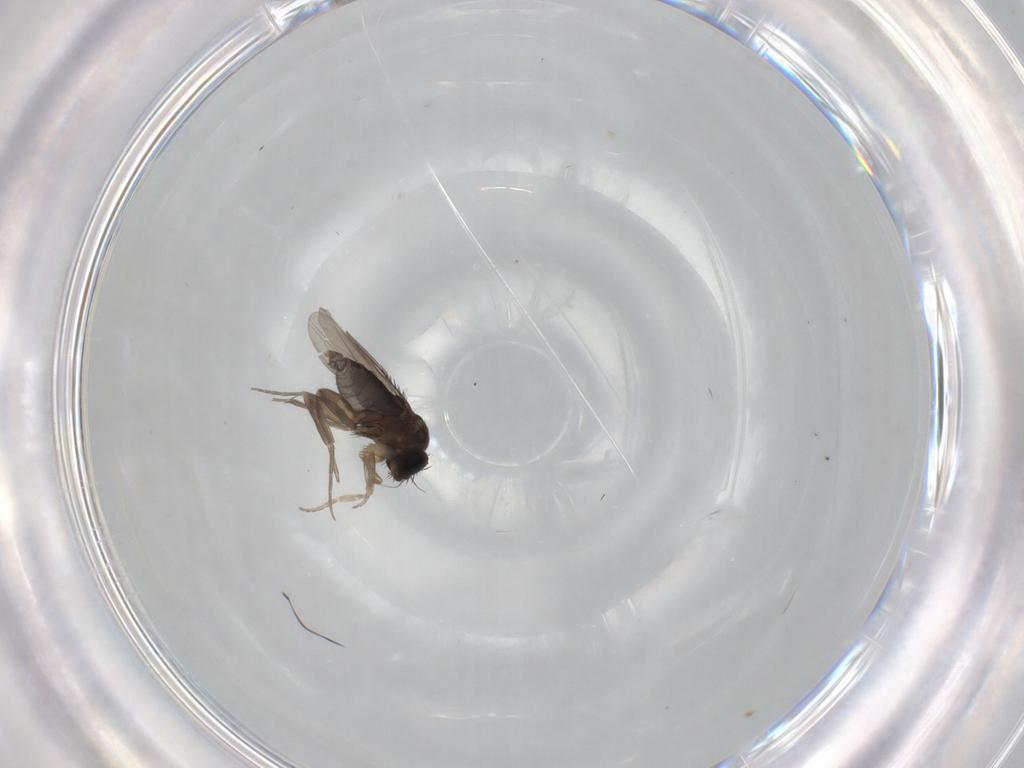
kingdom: Animalia
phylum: Arthropoda
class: Insecta
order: Diptera
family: Phoridae
